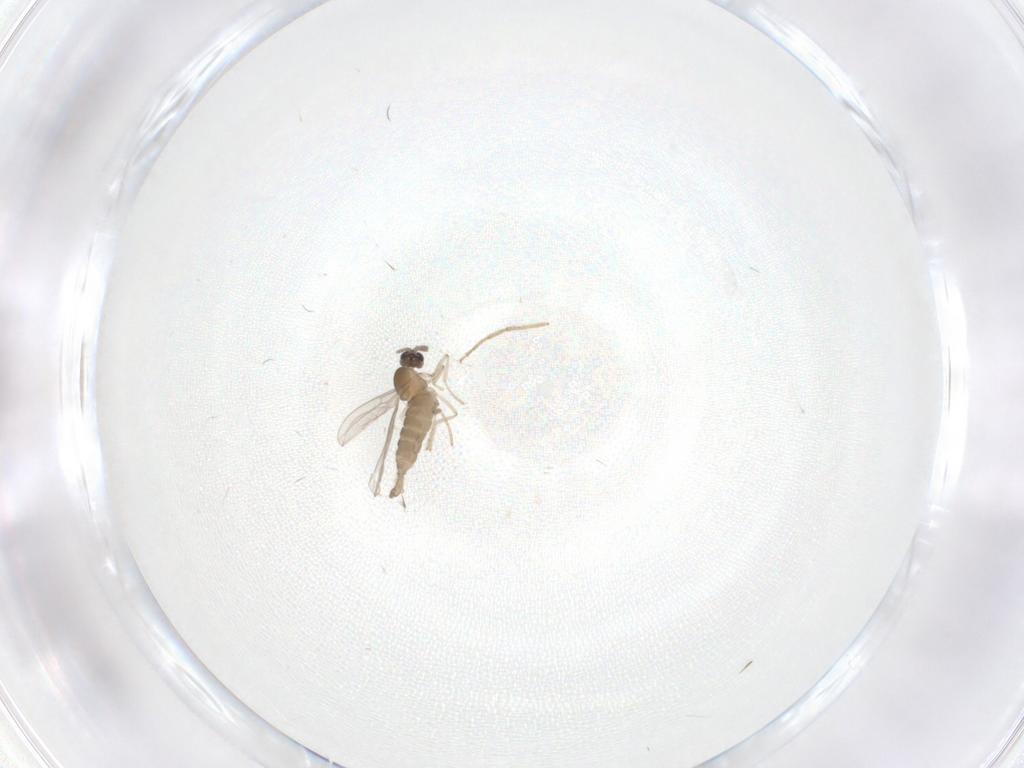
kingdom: Animalia
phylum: Arthropoda
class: Insecta
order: Diptera
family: Cecidomyiidae
